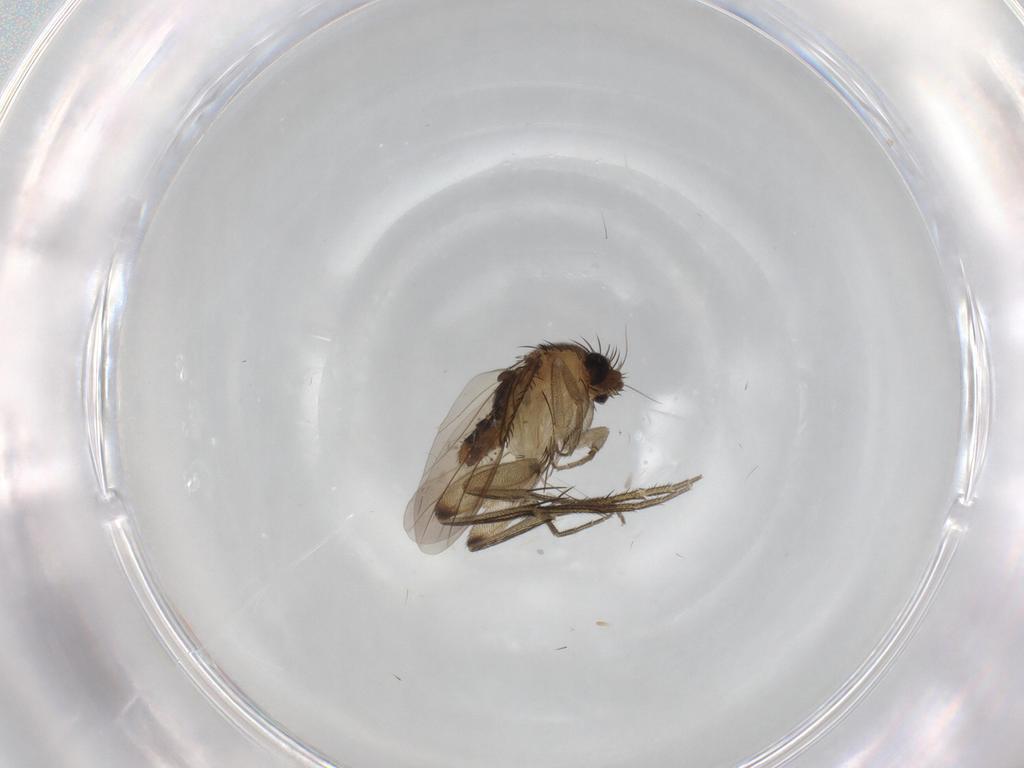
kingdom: Animalia
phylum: Arthropoda
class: Insecta
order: Diptera
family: Phoridae
